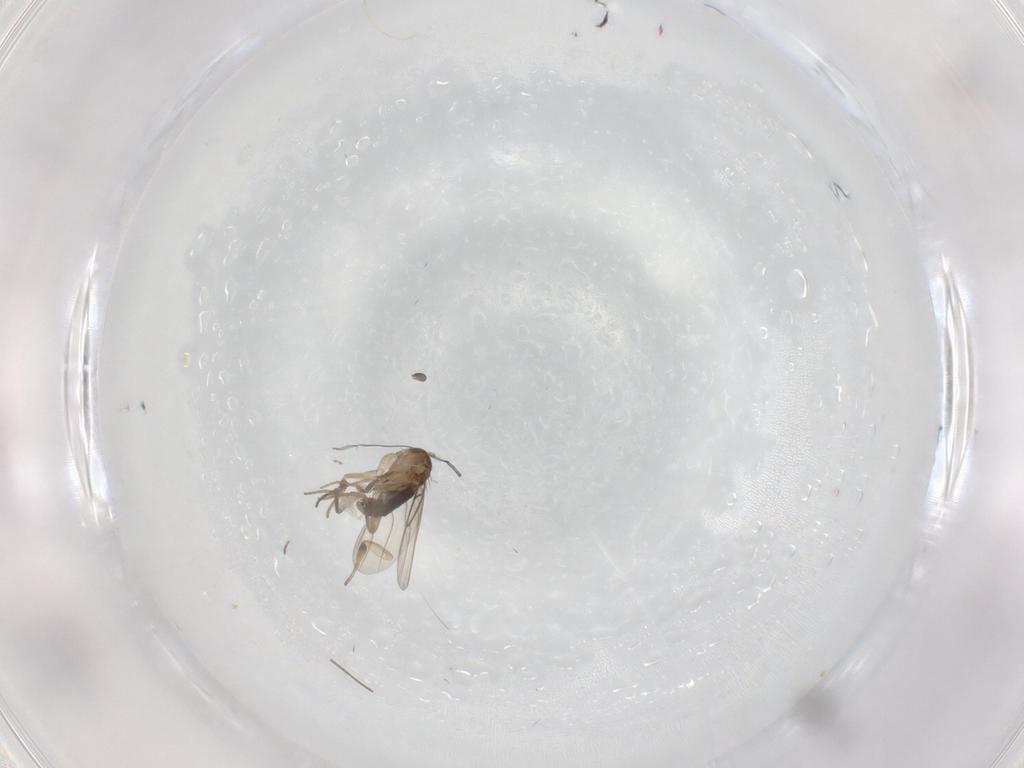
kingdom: Animalia
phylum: Arthropoda
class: Insecta
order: Diptera
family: Phoridae
